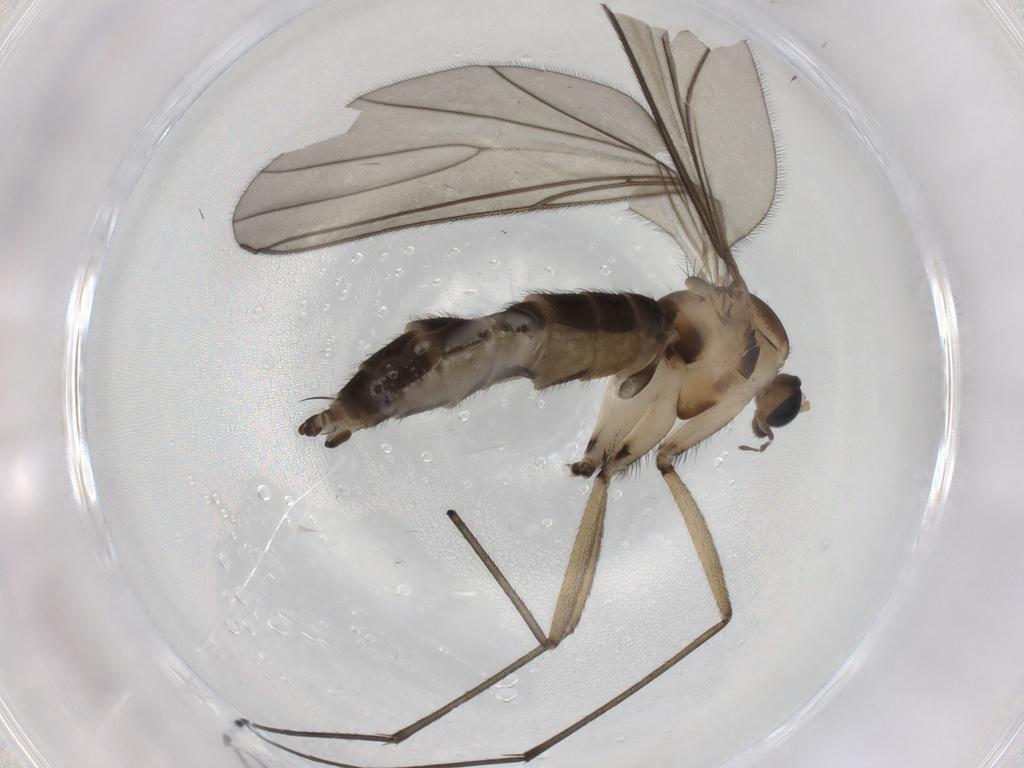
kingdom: Animalia
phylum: Arthropoda
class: Insecta
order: Diptera
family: Sciaridae
